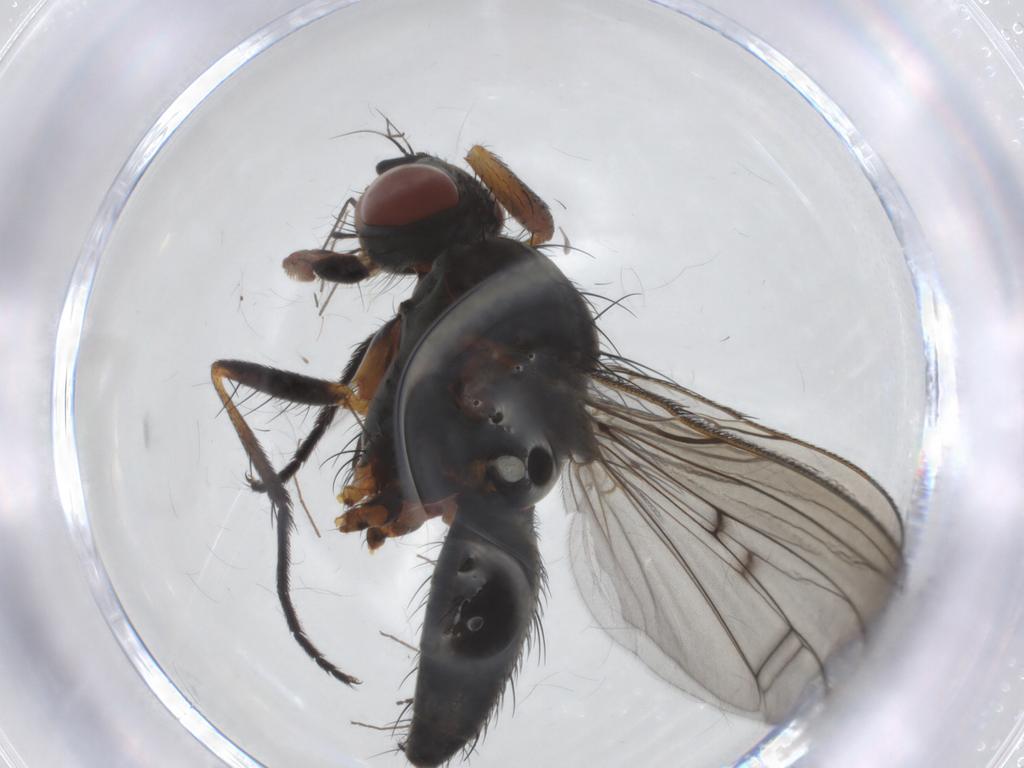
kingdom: Animalia
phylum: Arthropoda
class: Insecta
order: Diptera
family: Anthomyiidae
